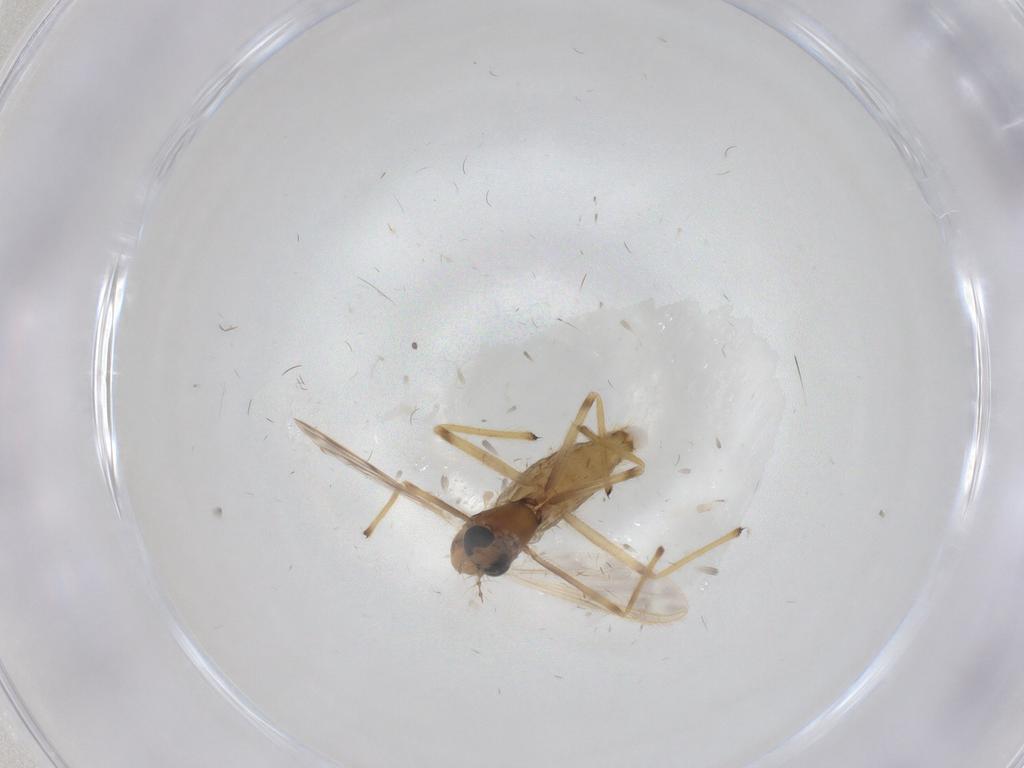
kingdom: Animalia
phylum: Arthropoda
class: Insecta
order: Diptera
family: Chironomidae
